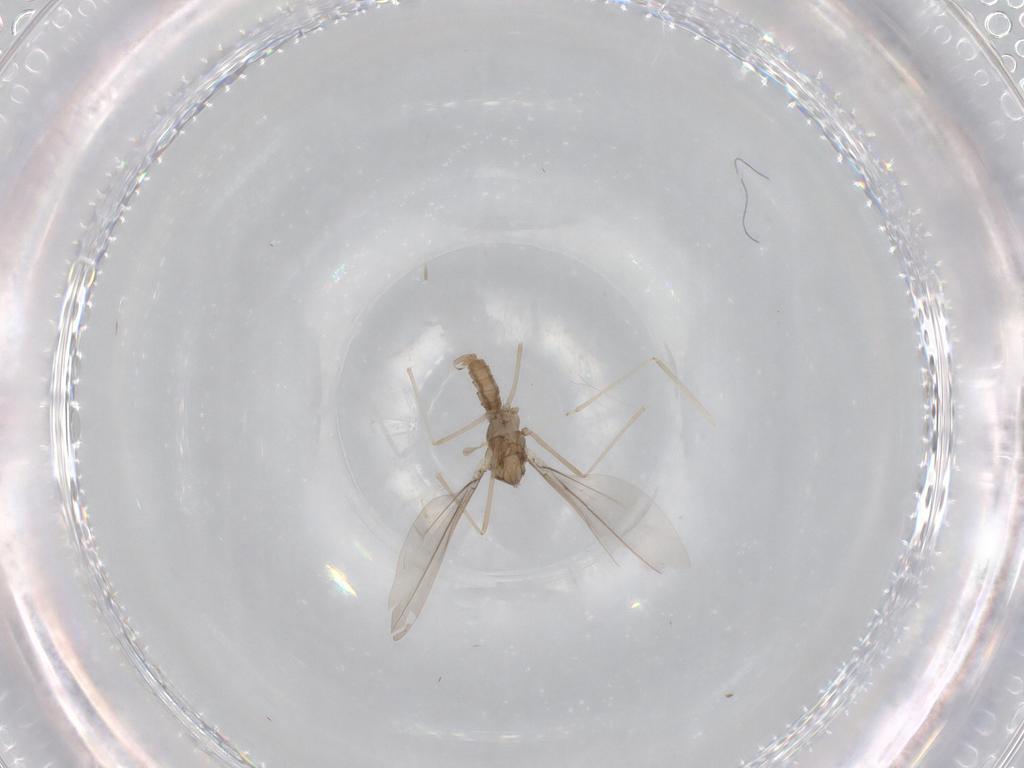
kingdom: Animalia
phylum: Arthropoda
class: Insecta
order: Diptera
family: Cecidomyiidae
